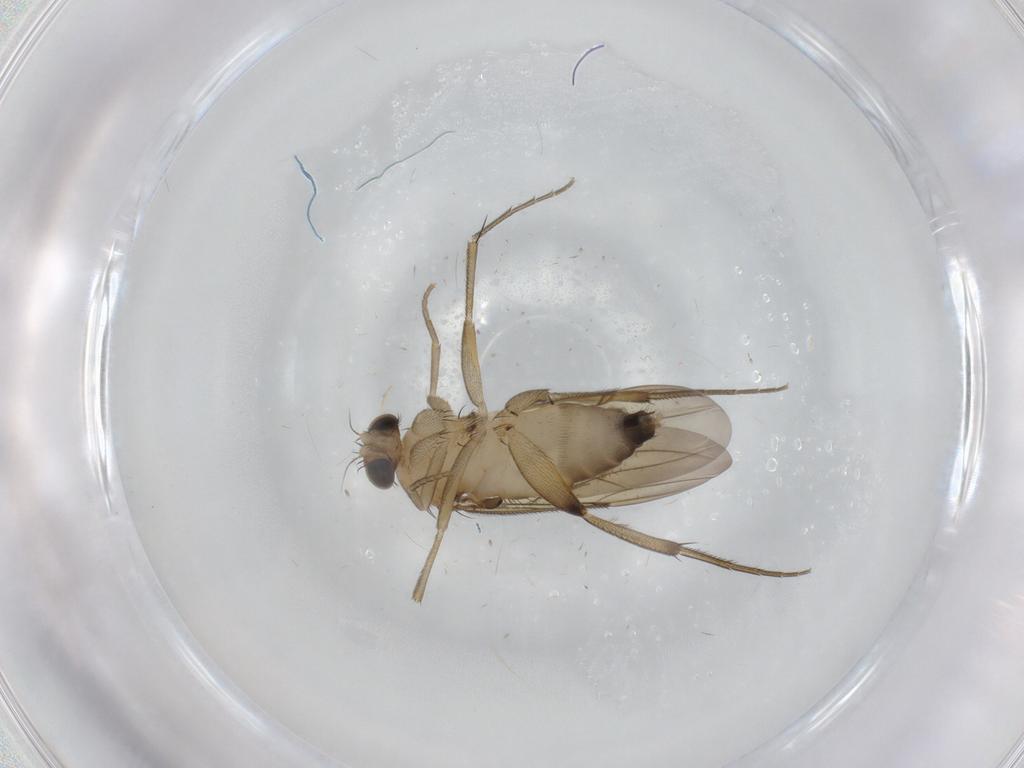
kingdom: Animalia
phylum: Arthropoda
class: Insecta
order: Diptera
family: Phoridae
